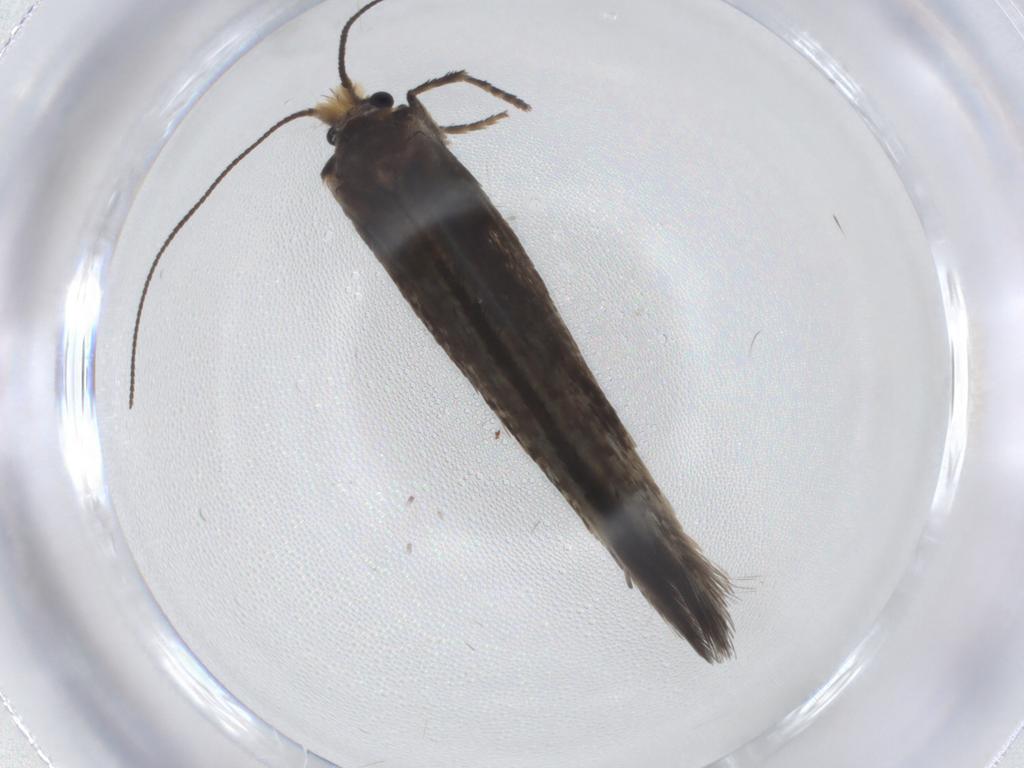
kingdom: Animalia
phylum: Arthropoda
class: Insecta
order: Lepidoptera
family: Nepticulidae
